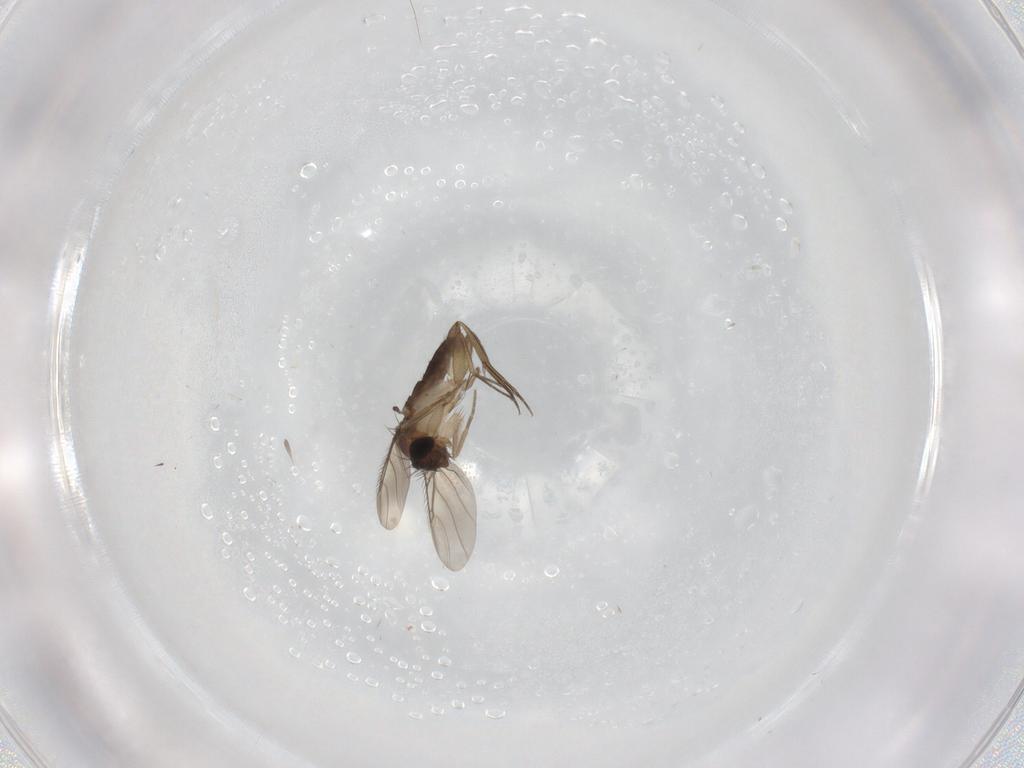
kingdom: Animalia
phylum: Arthropoda
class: Insecta
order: Diptera
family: Phoridae
